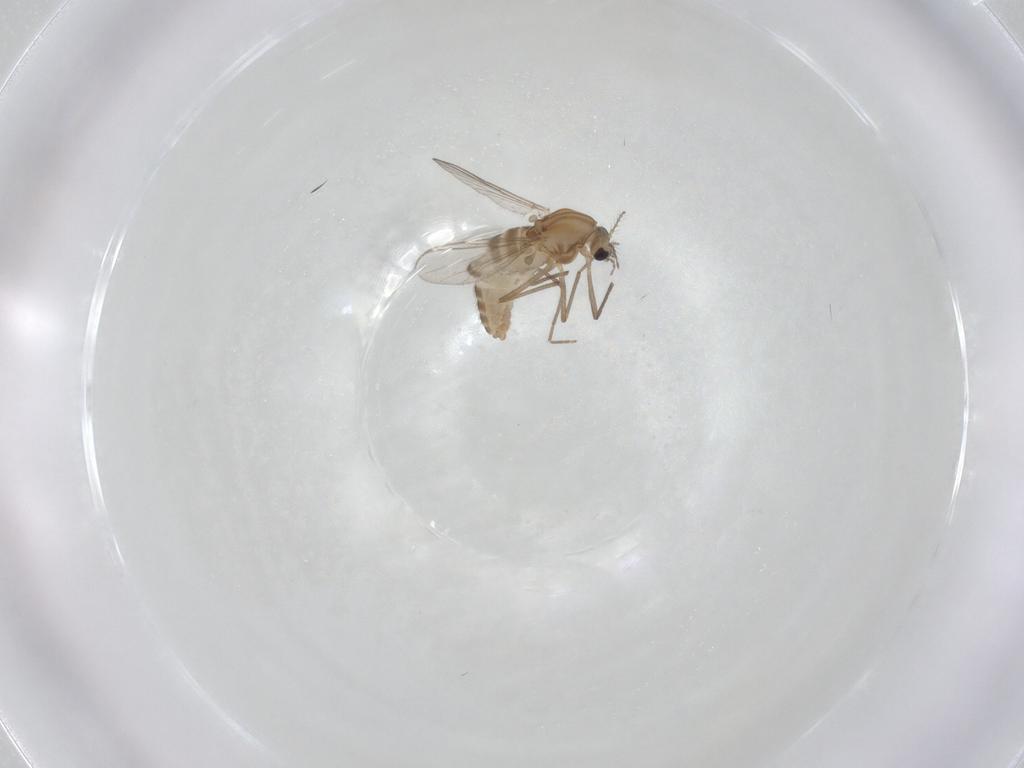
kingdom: Animalia
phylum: Arthropoda
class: Insecta
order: Diptera
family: Chironomidae
